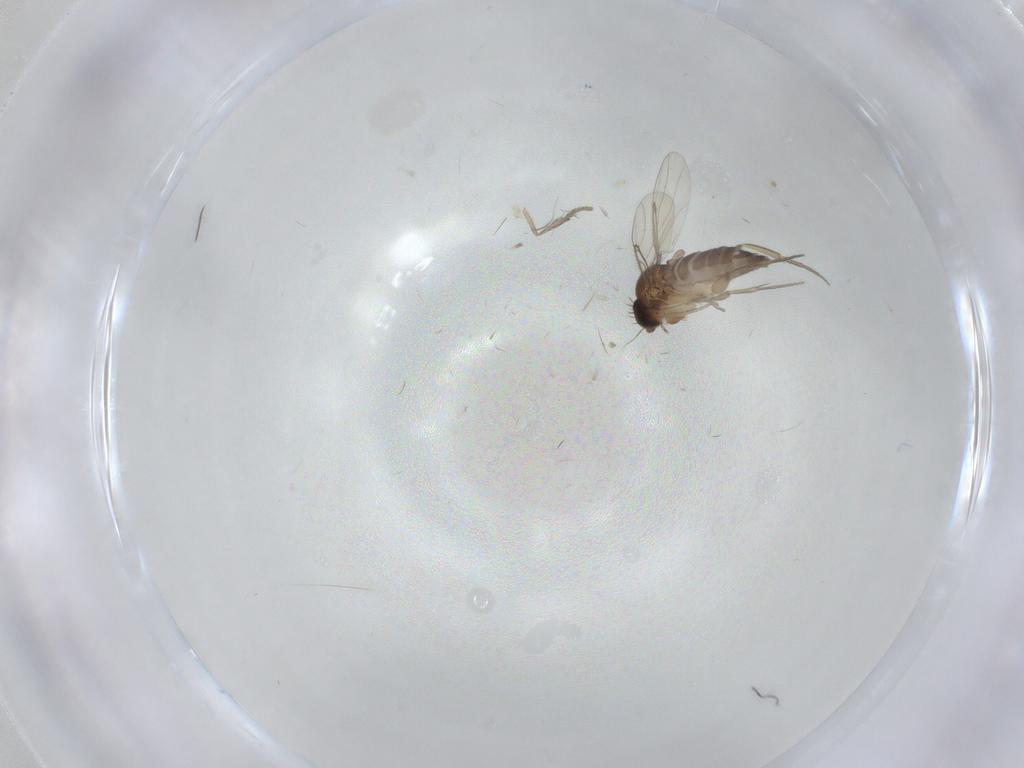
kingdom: Animalia
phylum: Arthropoda
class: Insecta
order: Diptera
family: Phoridae
